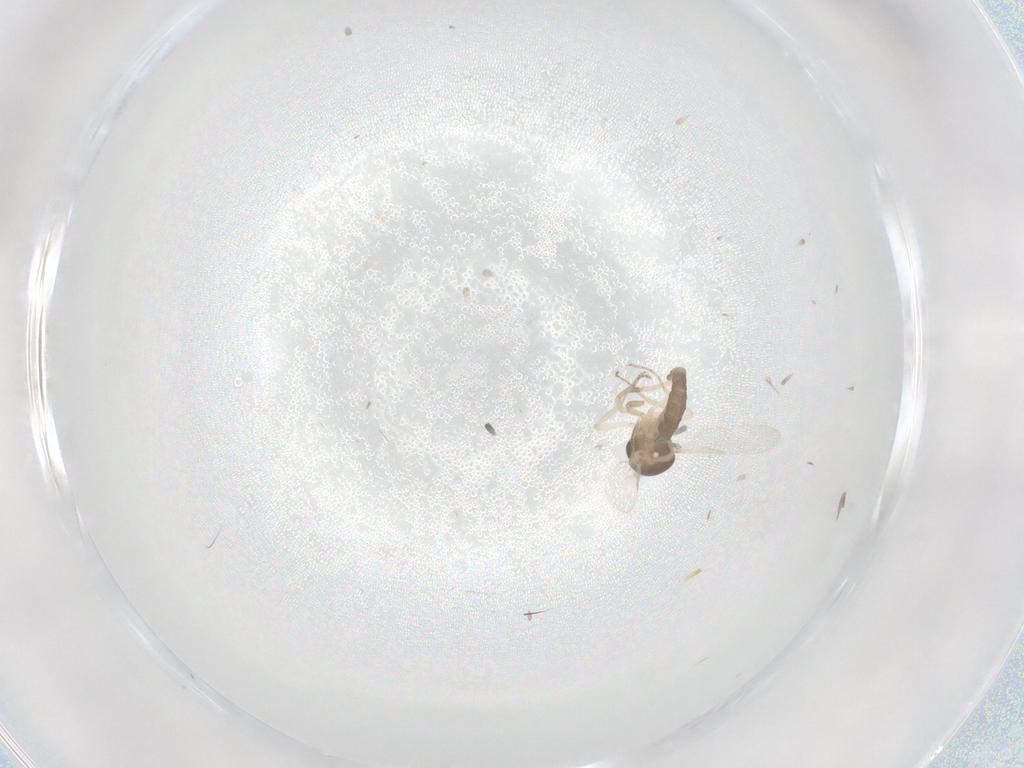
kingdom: Animalia
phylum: Arthropoda
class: Insecta
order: Diptera
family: Ceratopogonidae
